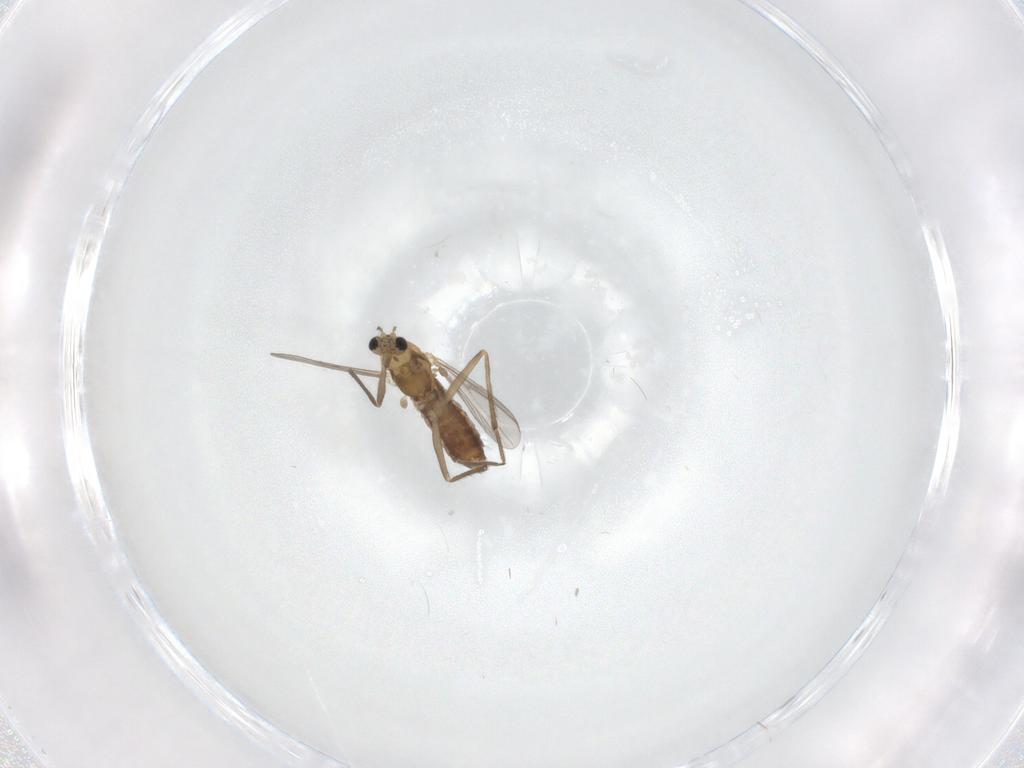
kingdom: Animalia
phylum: Arthropoda
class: Insecta
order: Diptera
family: Chironomidae
